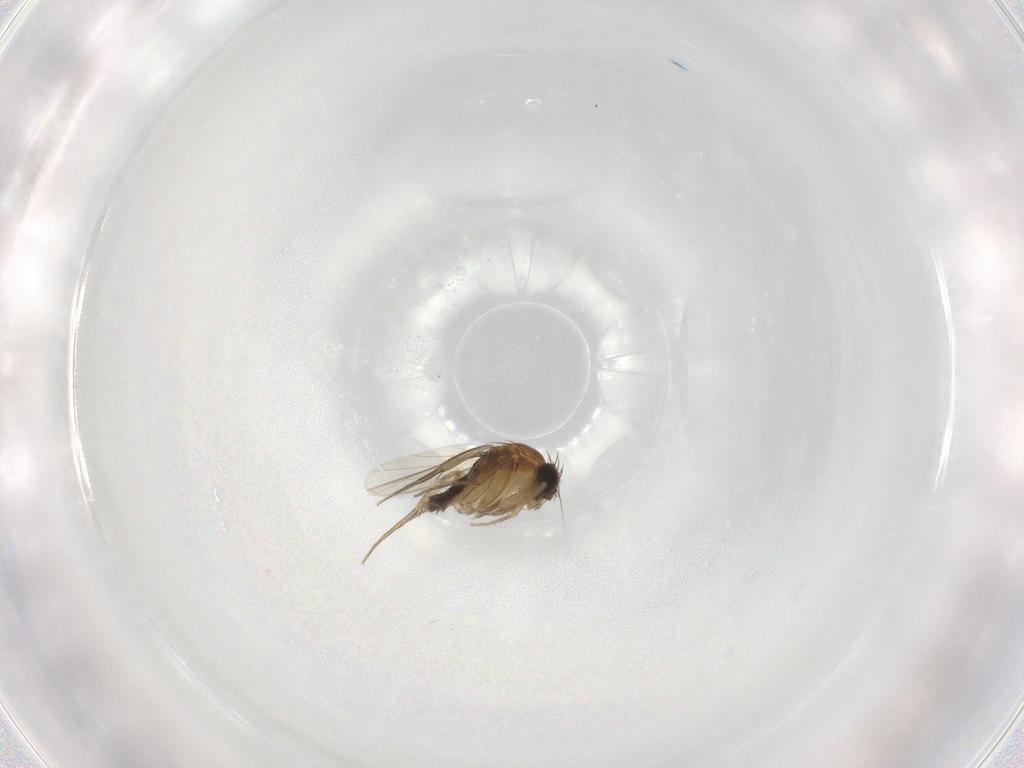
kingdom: Animalia
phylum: Arthropoda
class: Insecta
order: Diptera
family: Phoridae
